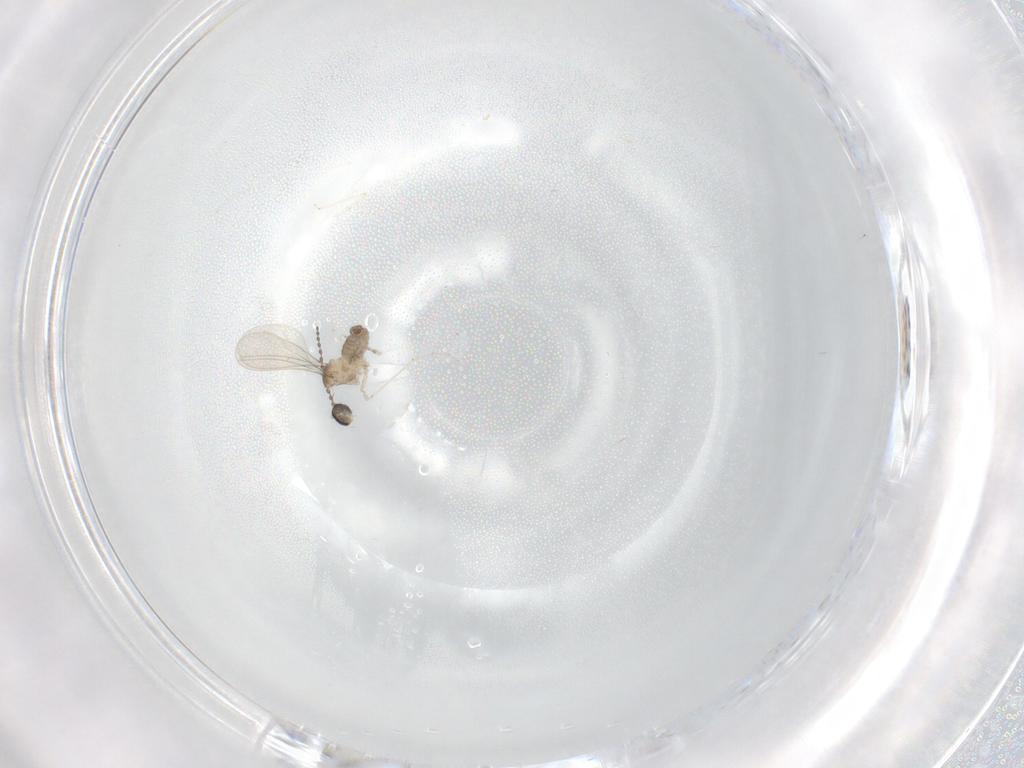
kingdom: Animalia
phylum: Arthropoda
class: Insecta
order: Diptera
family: Cecidomyiidae
